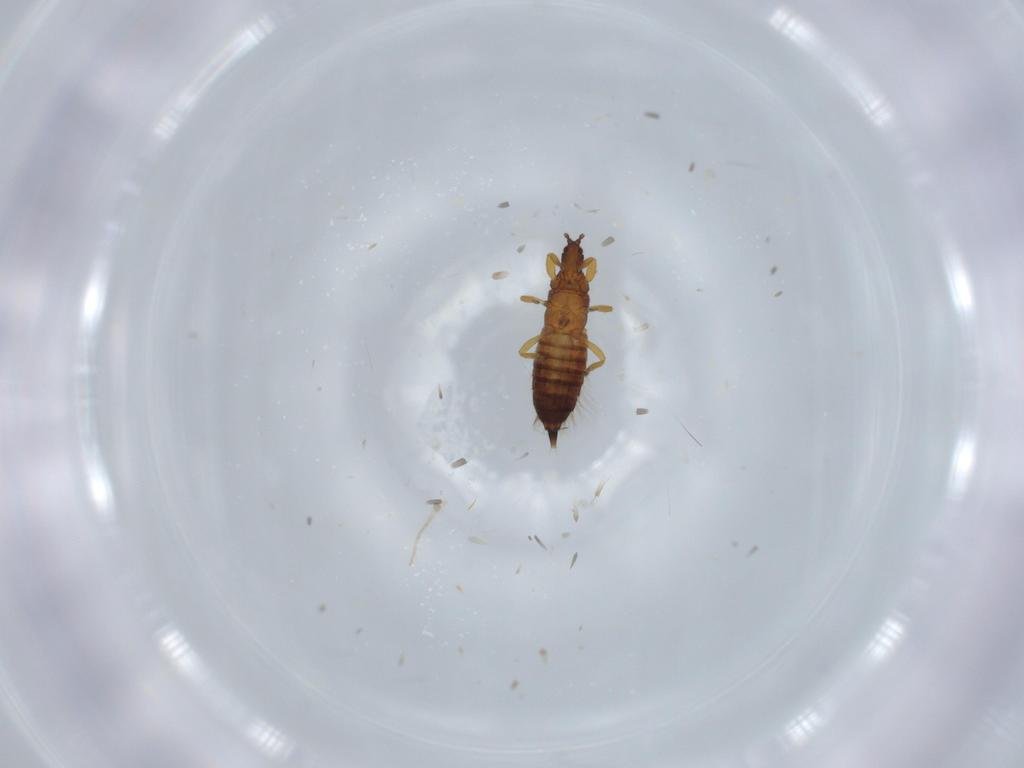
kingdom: Animalia
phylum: Arthropoda
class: Insecta
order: Thysanoptera
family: Phlaeothripidae
